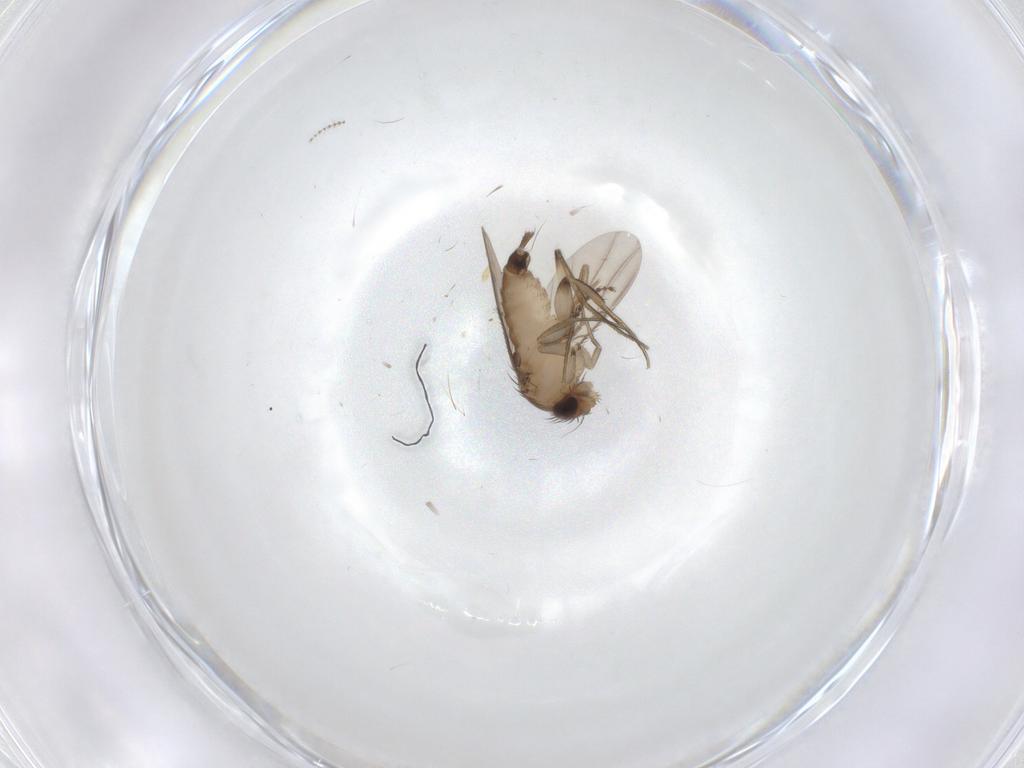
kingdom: Animalia
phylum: Arthropoda
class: Insecta
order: Diptera
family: Phoridae
